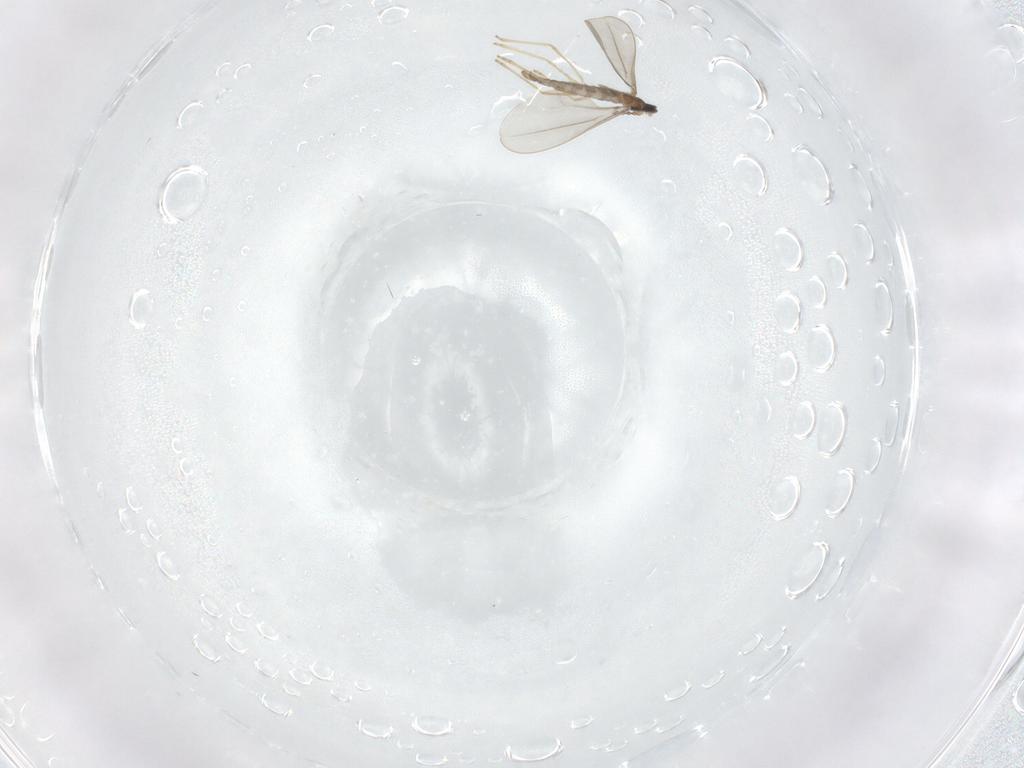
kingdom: Animalia
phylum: Arthropoda
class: Insecta
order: Diptera
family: Cecidomyiidae
